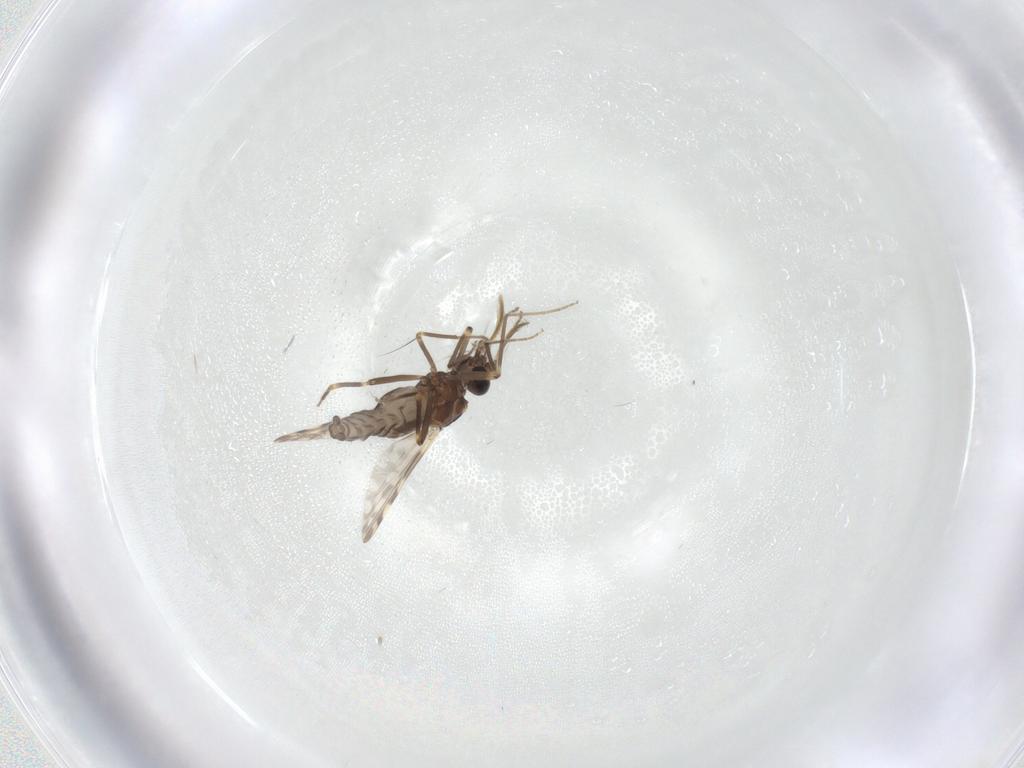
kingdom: Animalia
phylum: Arthropoda
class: Insecta
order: Diptera
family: Ceratopogonidae
